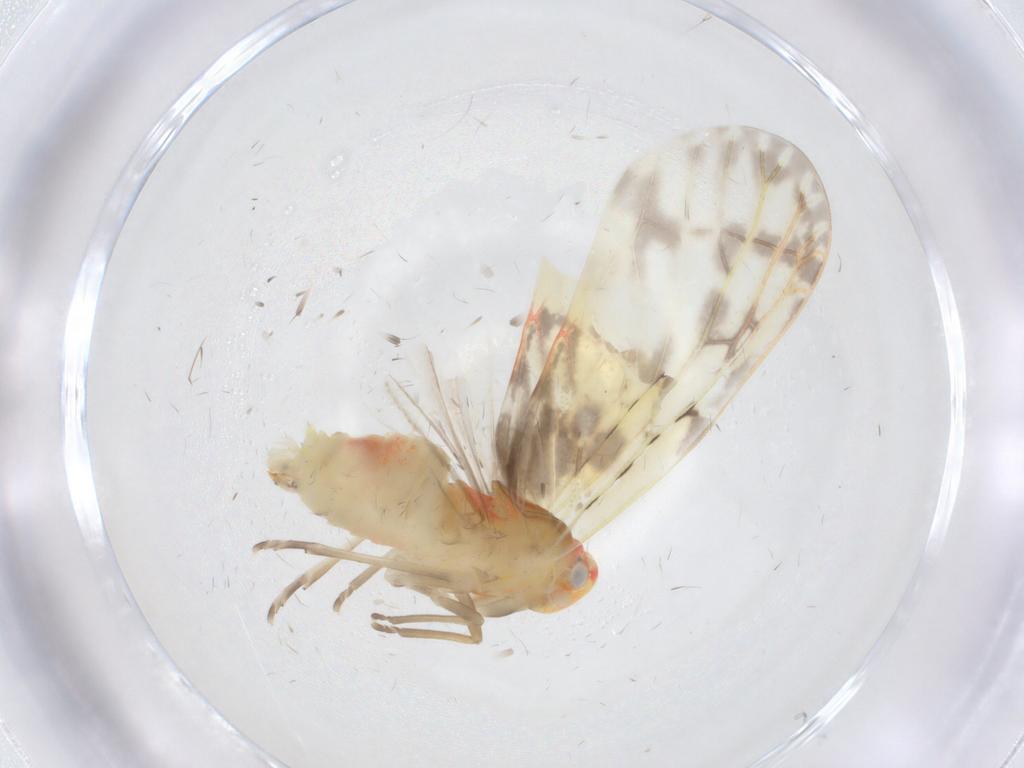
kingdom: Animalia
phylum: Arthropoda
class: Insecta
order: Hemiptera
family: Derbidae
